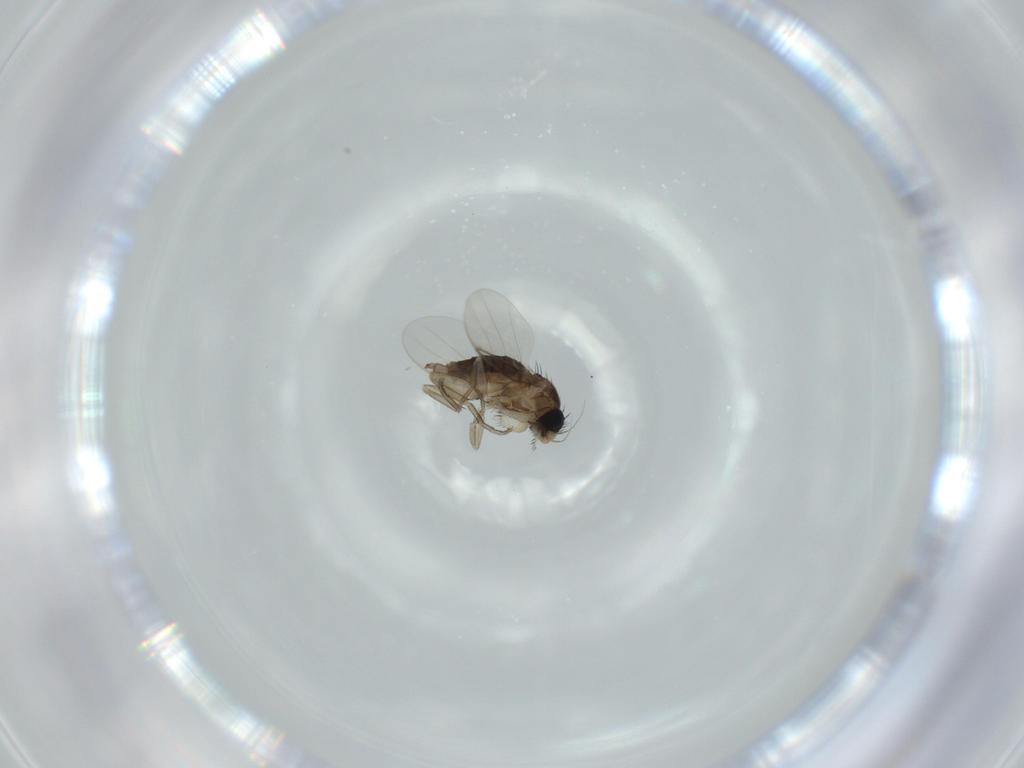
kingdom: Animalia
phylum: Arthropoda
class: Insecta
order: Diptera
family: Phoridae
